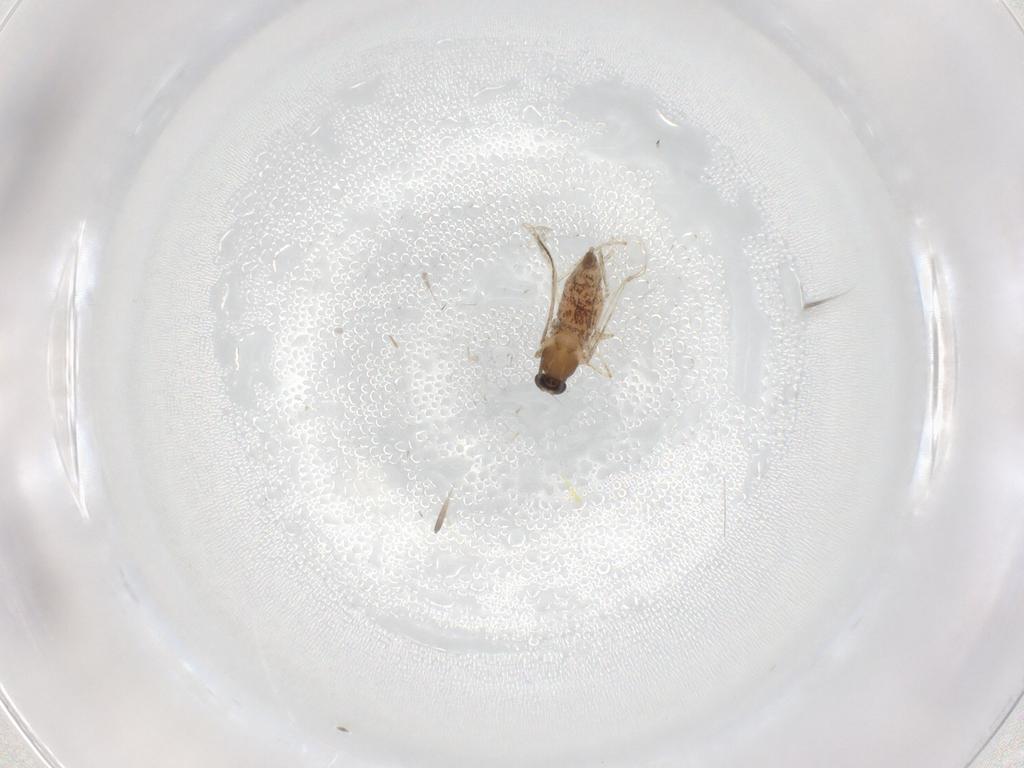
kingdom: Animalia
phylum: Arthropoda
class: Insecta
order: Diptera
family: Cecidomyiidae
